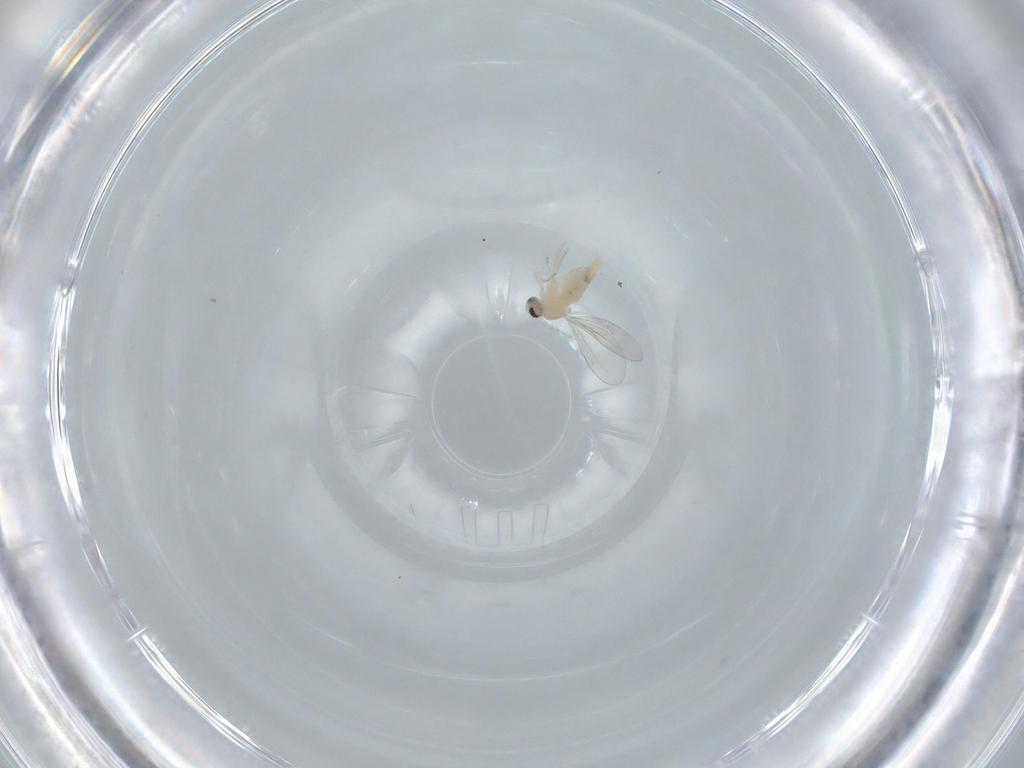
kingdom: Animalia
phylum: Arthropoda
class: Insecta
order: Diptera
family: Cecidomyiidae
